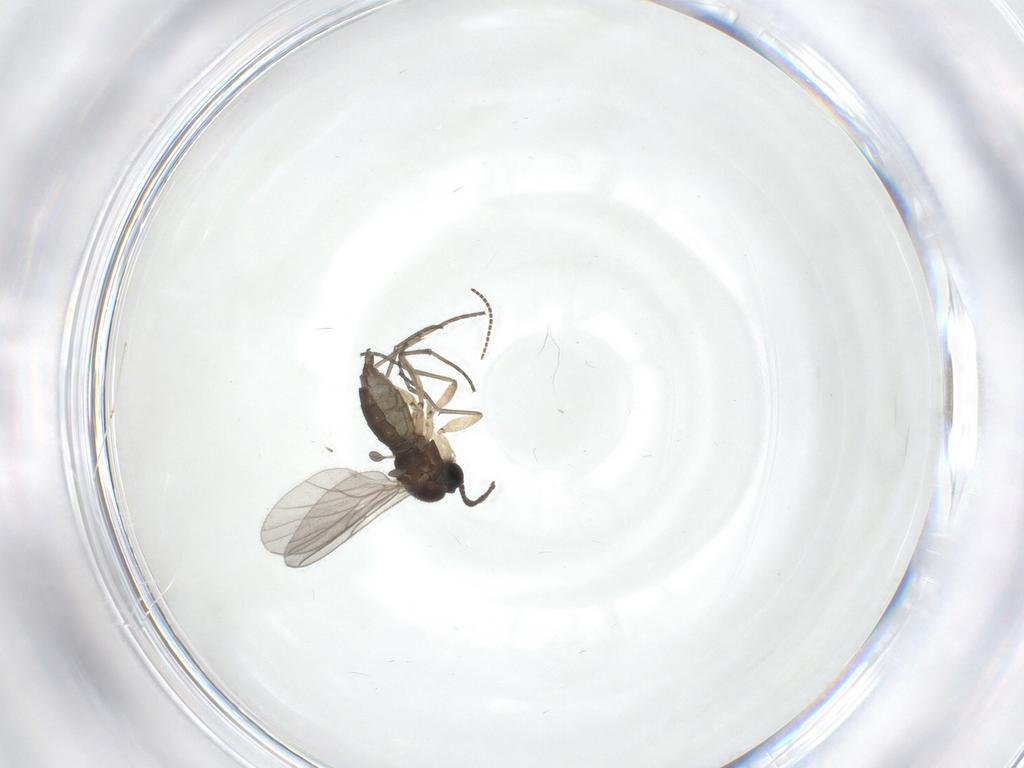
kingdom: Animalia
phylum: Arthropoda
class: Insecta
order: Diptera
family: Sciaridae
